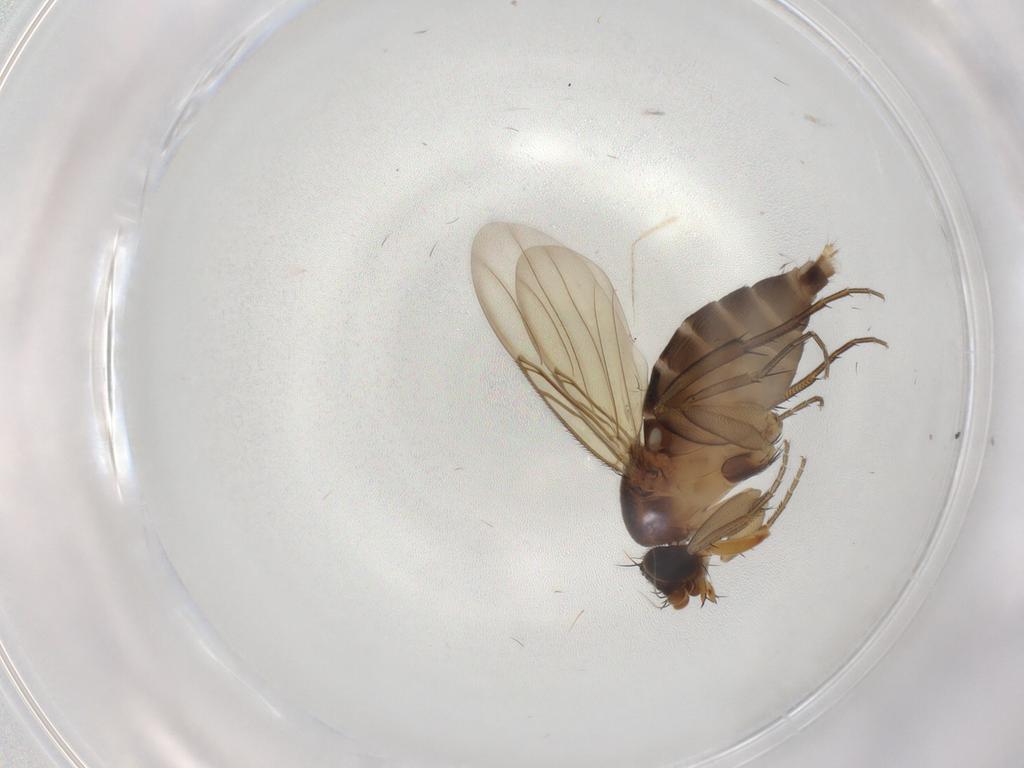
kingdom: Animalia
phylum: Arthropoda
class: Insecta
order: Diptera
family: Phoridae
